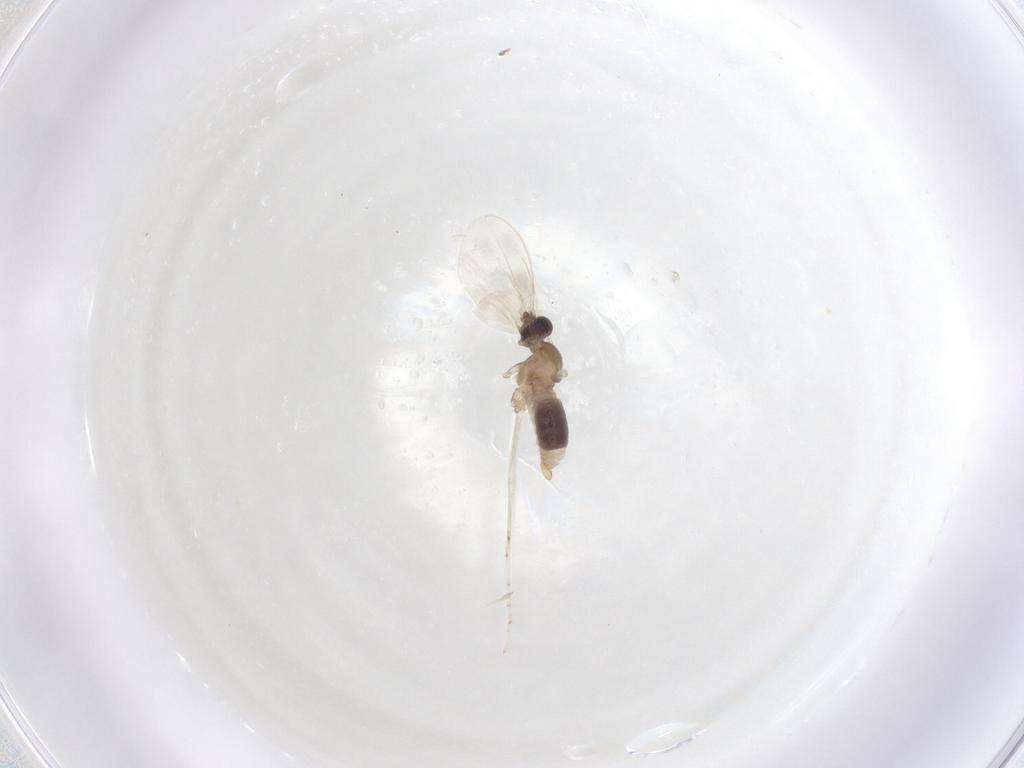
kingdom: Animalia
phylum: Arthropoda
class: Insecta
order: Diptera
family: Cecidomyiidae
